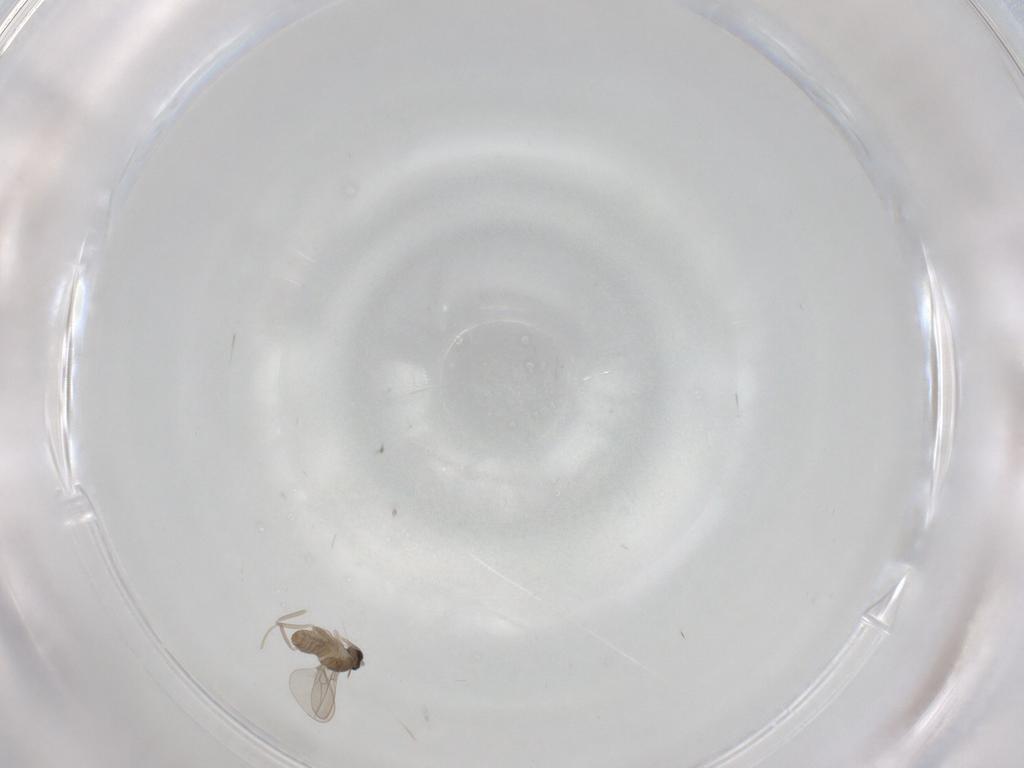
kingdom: Animalia
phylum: Arthropoda
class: Insecta
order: Diptera
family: Cecidomyiidae
